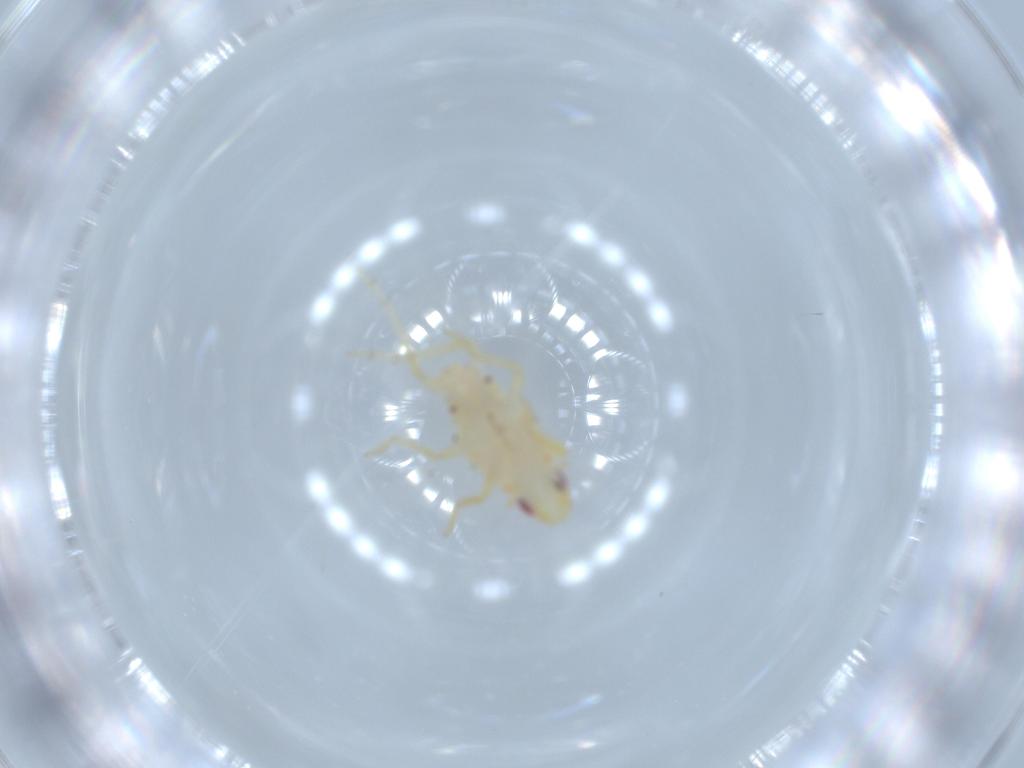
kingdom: Animalia
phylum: Arthropoda
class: Insecta
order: Hemiptera
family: Tropiduchidae
